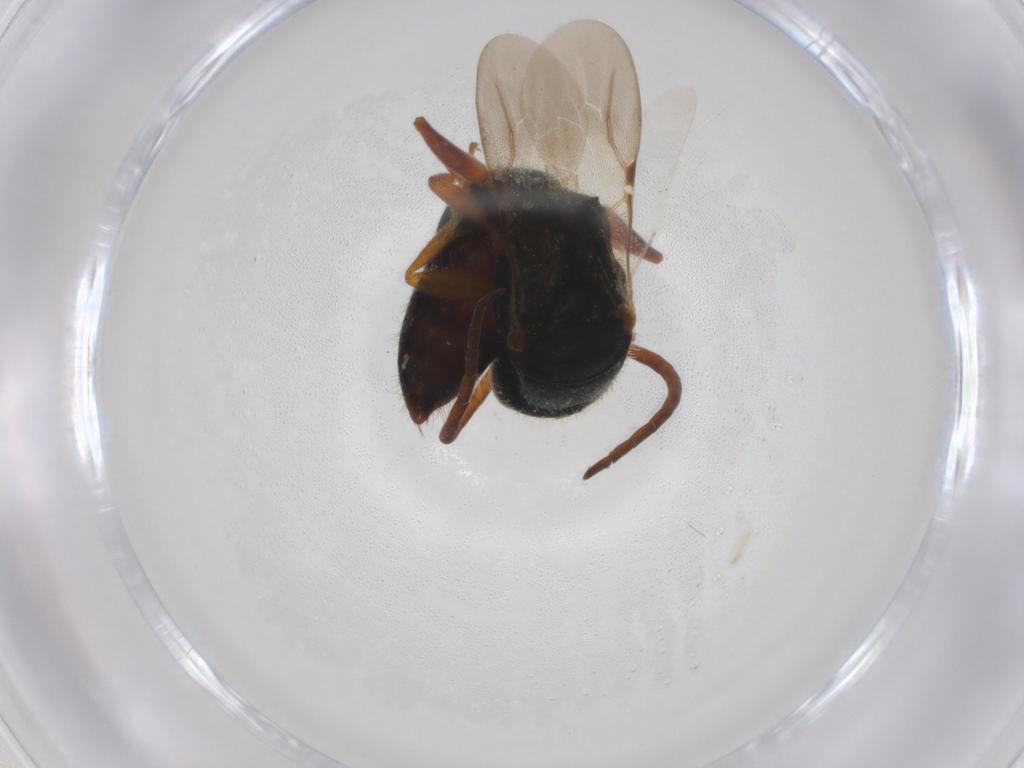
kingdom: Animalia
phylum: Arthropoda
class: Insecta
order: Hymenoptera
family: Bethylidae
